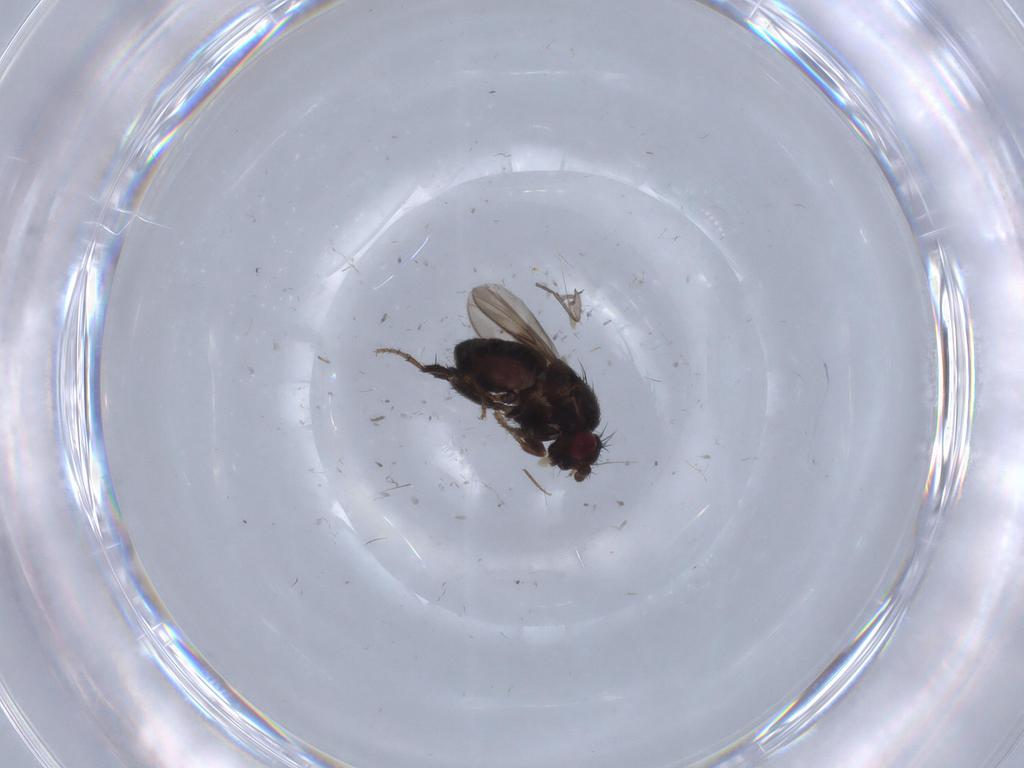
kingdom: Animalia
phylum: Arthropoda
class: Insecta
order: Diptera
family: Sphaeroceridae
